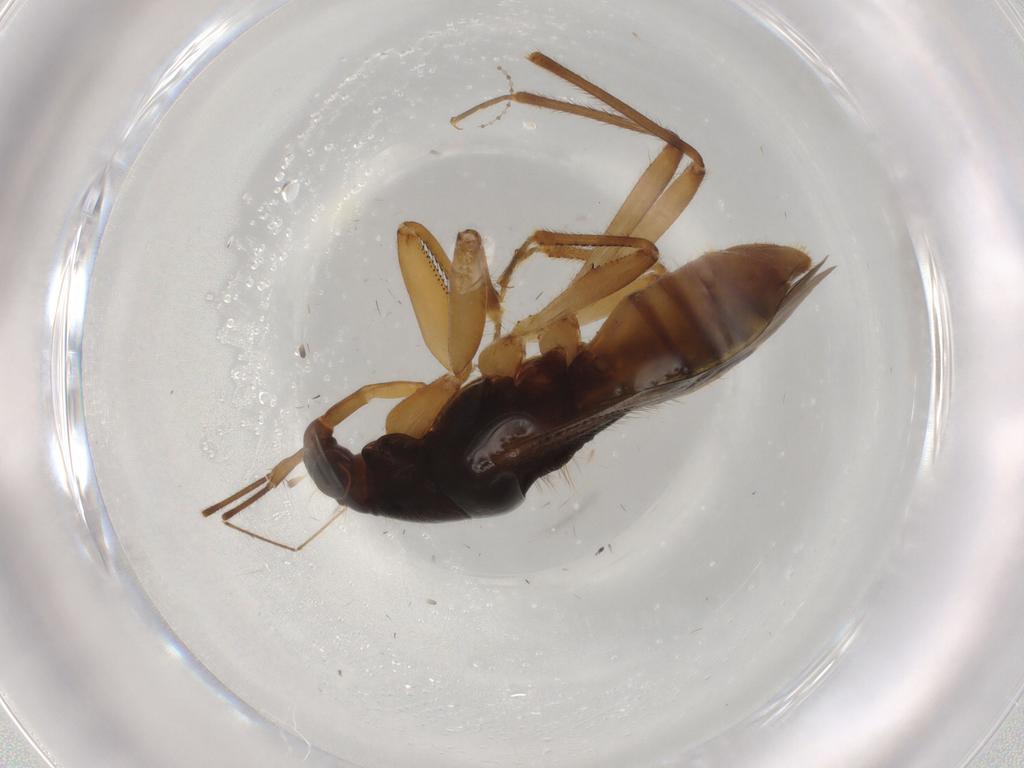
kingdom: Animalia
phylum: Arthropoda
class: Insecta
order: Hemiptera
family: Nabidae
